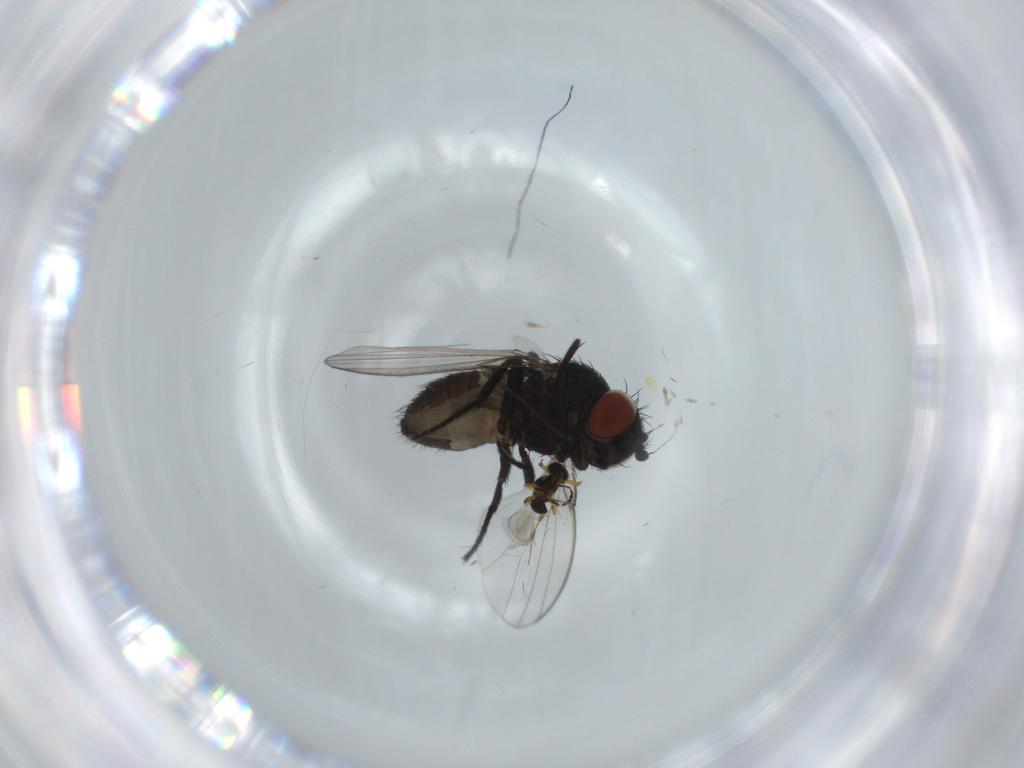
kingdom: Animalia
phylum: Arthropoda
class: Insecta
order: Diptera
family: Milichiidae
